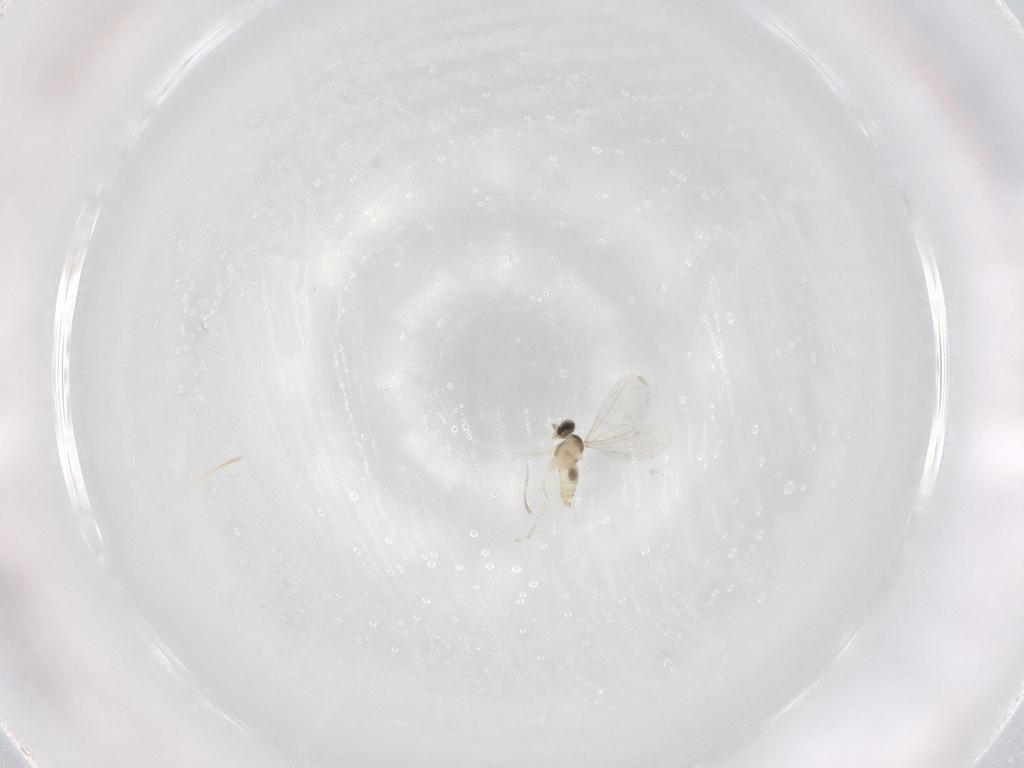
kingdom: Animalia
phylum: Arthropoda
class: Insecta
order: Diptera
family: Cecidomyiidae
